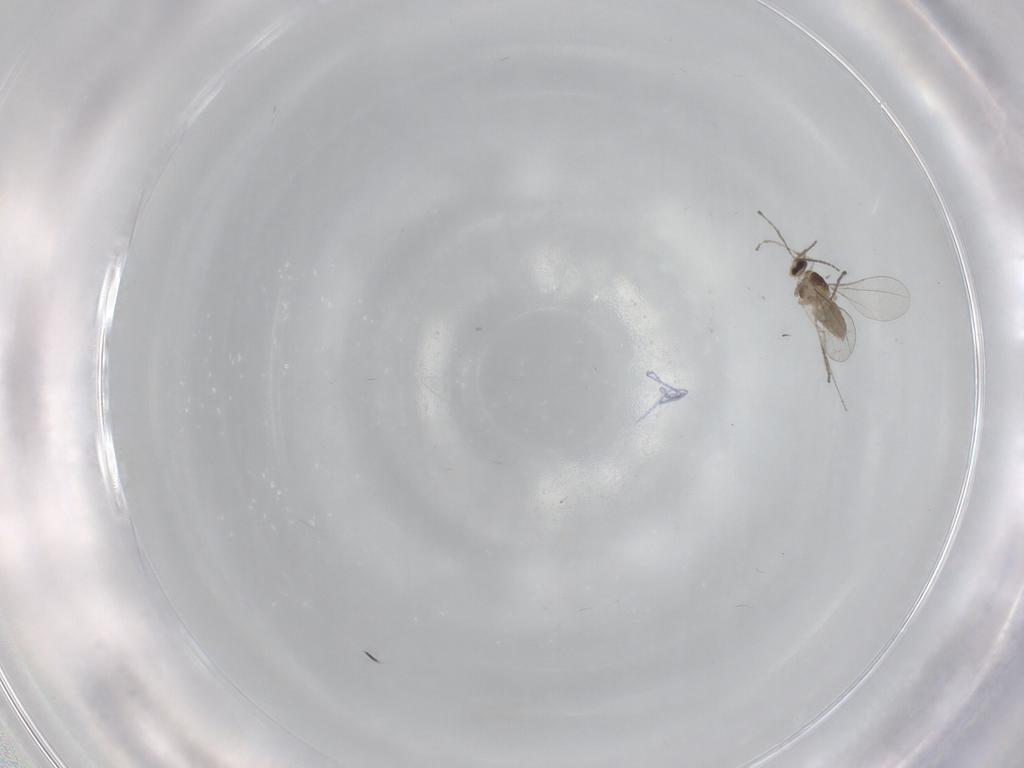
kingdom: Animalia
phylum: Arthropoda
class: Insecta
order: Diptera
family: Cecidomyiidae
